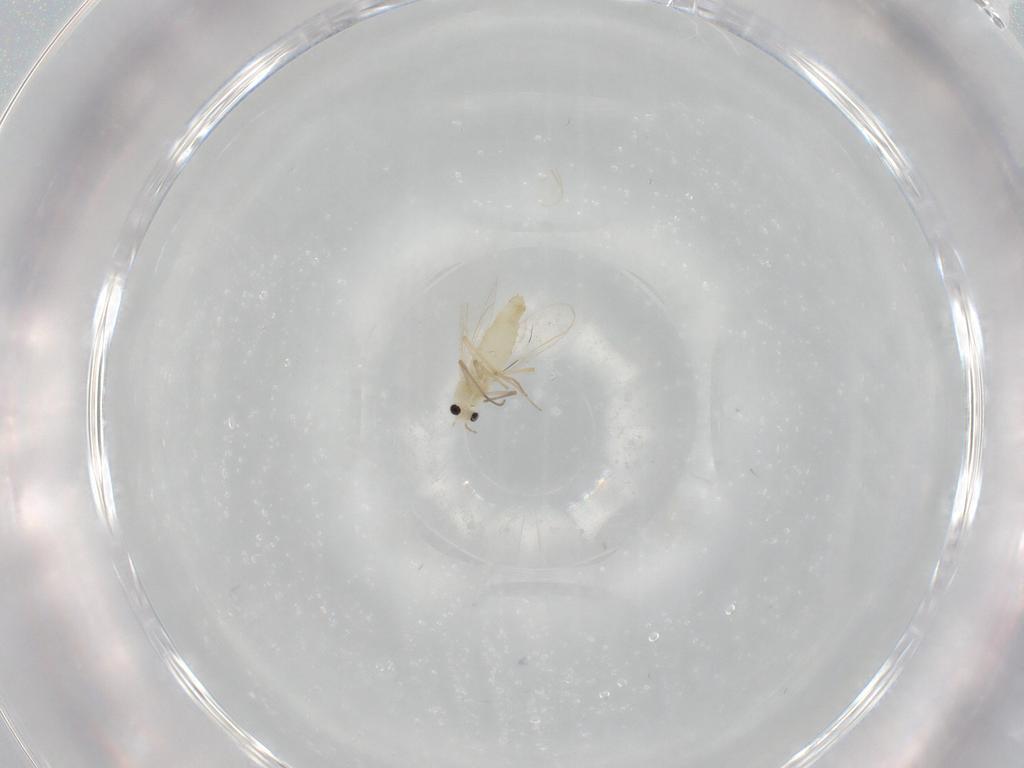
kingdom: Animalia
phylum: Arthropoda
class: Insecta
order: Diptera
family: Chironomidae
